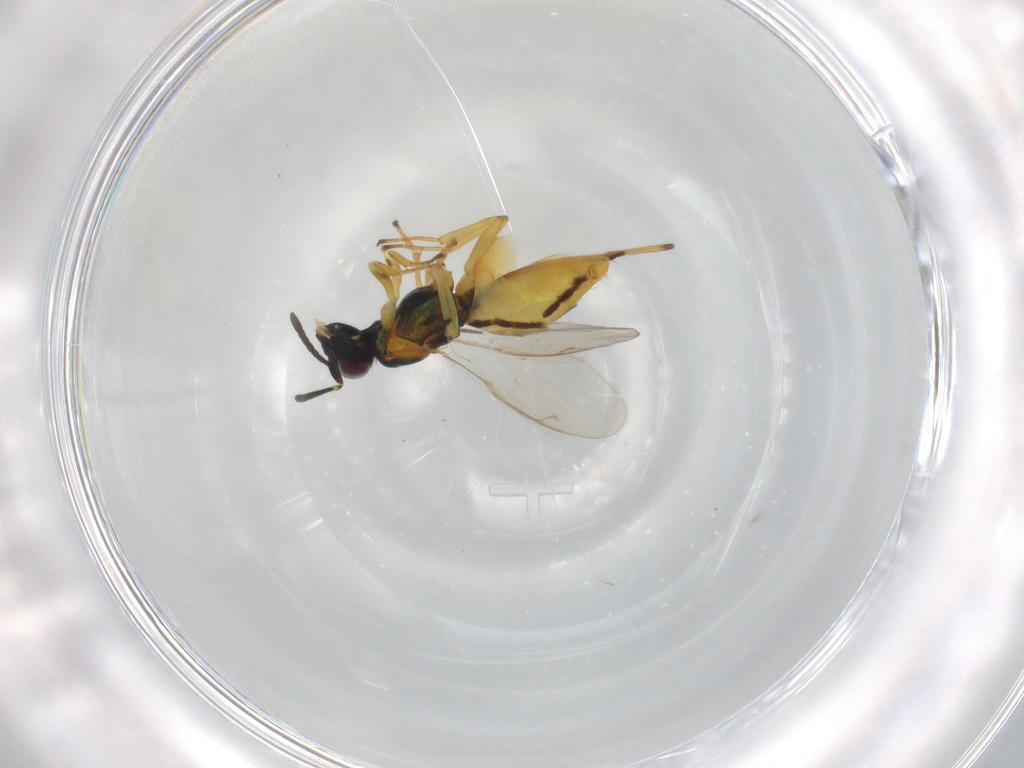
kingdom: Animalia
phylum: Arthropoda
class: Insecta
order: Hymenoptera
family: Eupelmidae
